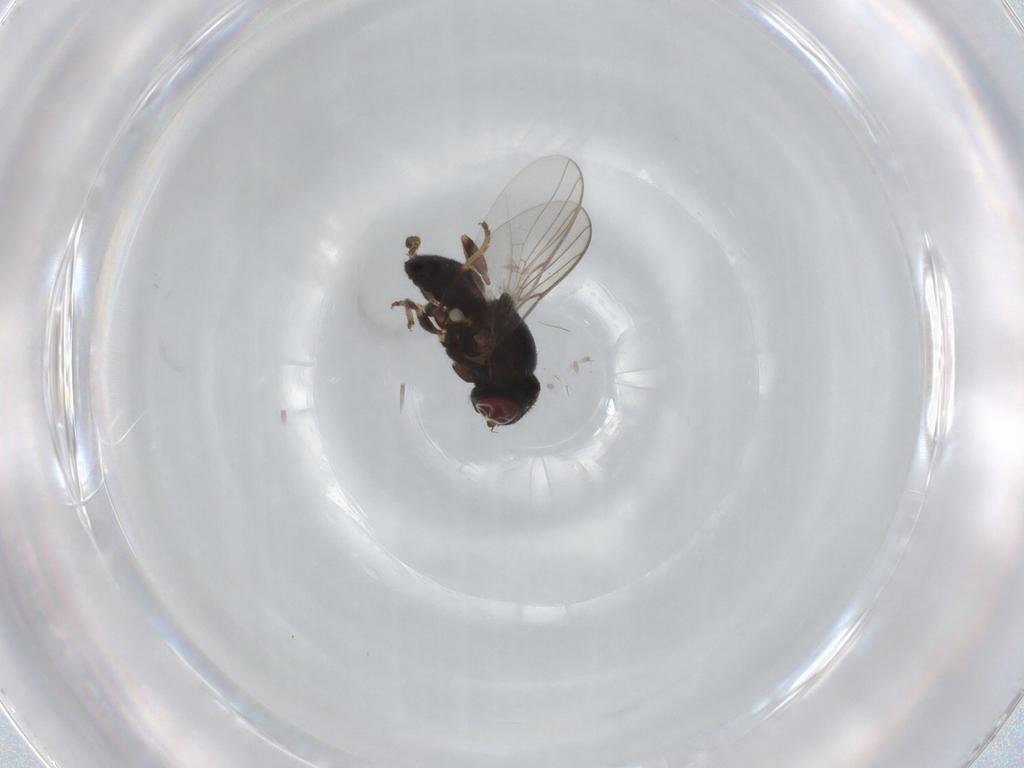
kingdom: Animalia
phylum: Arthropoda
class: Insecta
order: Diptera
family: Chloropidae
